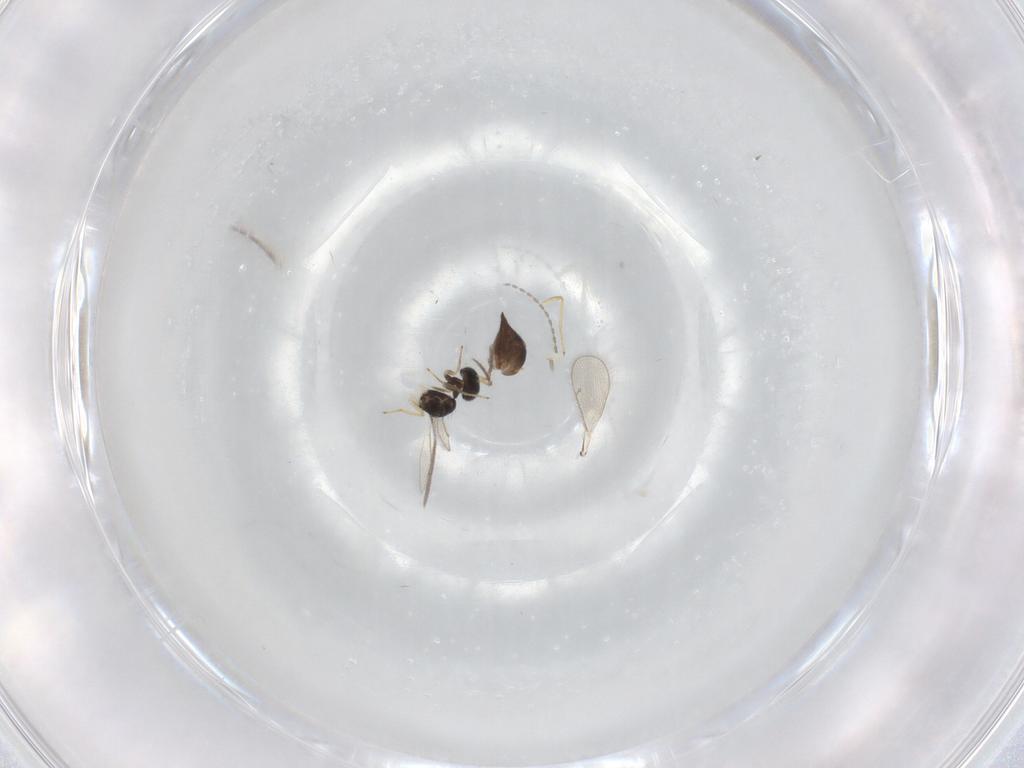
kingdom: Animalia
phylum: Arthropoda
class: Insecta
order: Hymenoptera
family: Eulophidae
